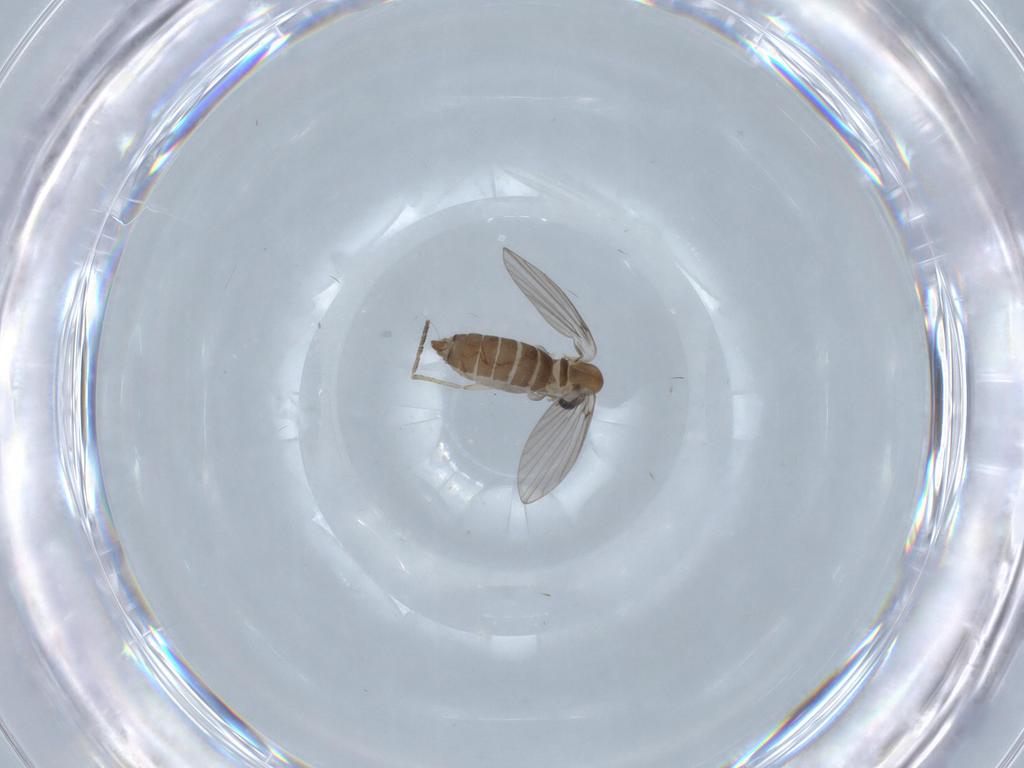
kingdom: Animalia
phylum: Arthropoda
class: Insecta
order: Diptera
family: Psychodidae
